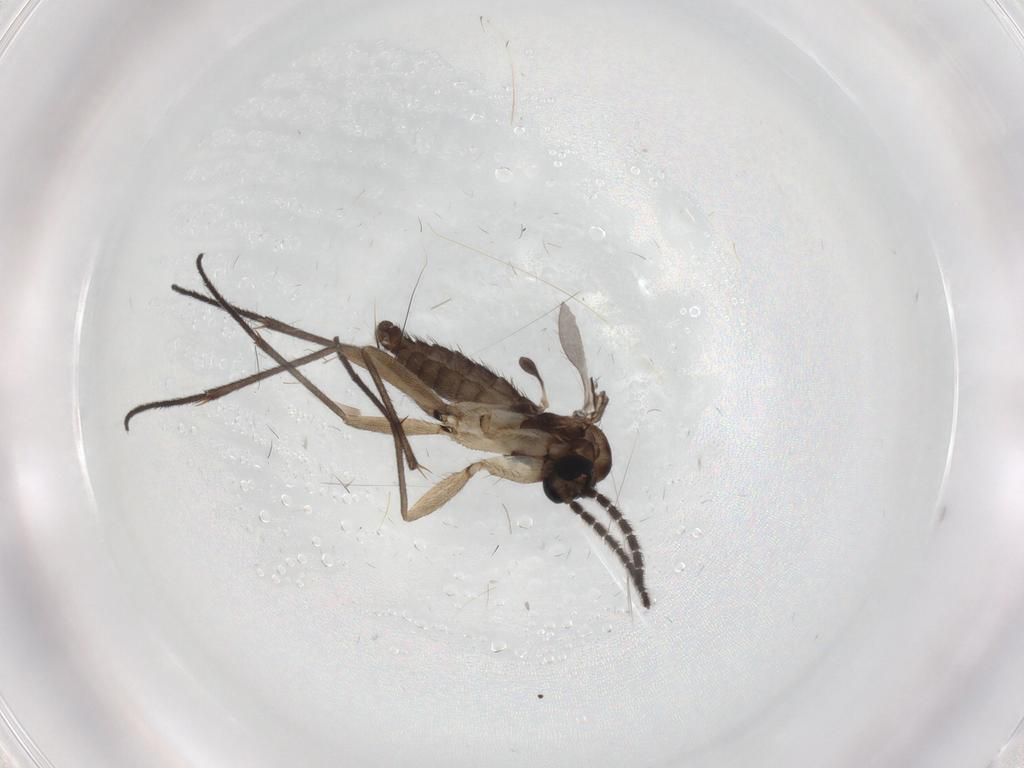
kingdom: Animalia
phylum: Arthropoda
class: Insecta
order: Diptera
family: Sciaridae
